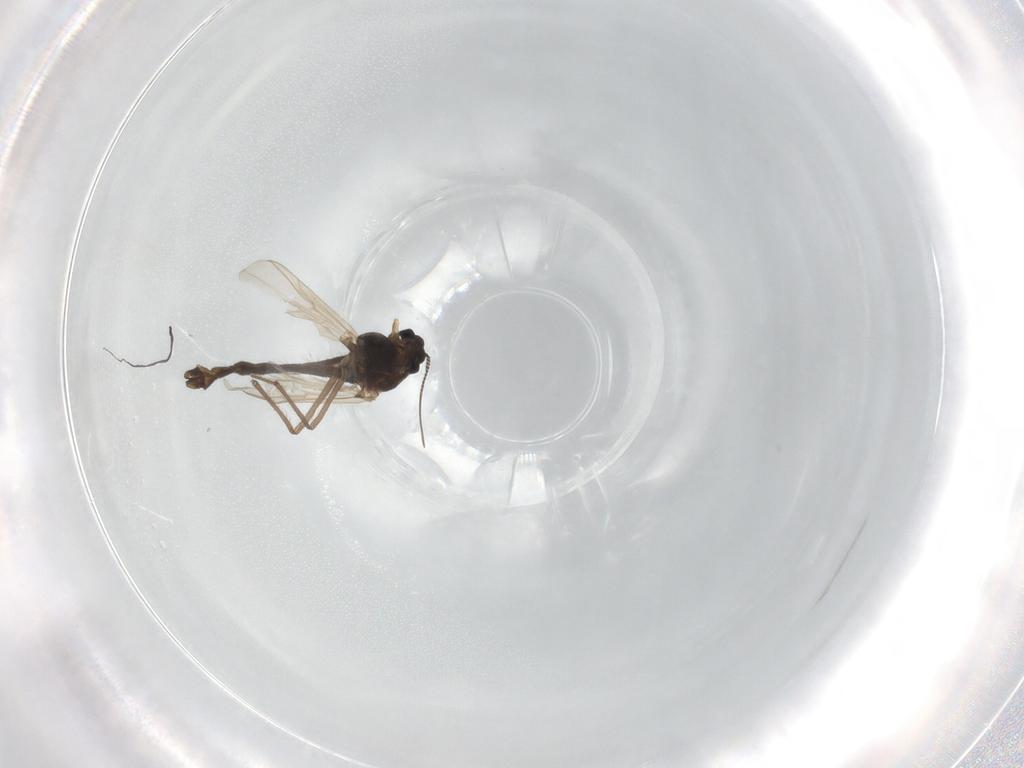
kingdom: Animalia
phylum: Arthropoda
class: Insecta
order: Diptera
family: Chironomidae
